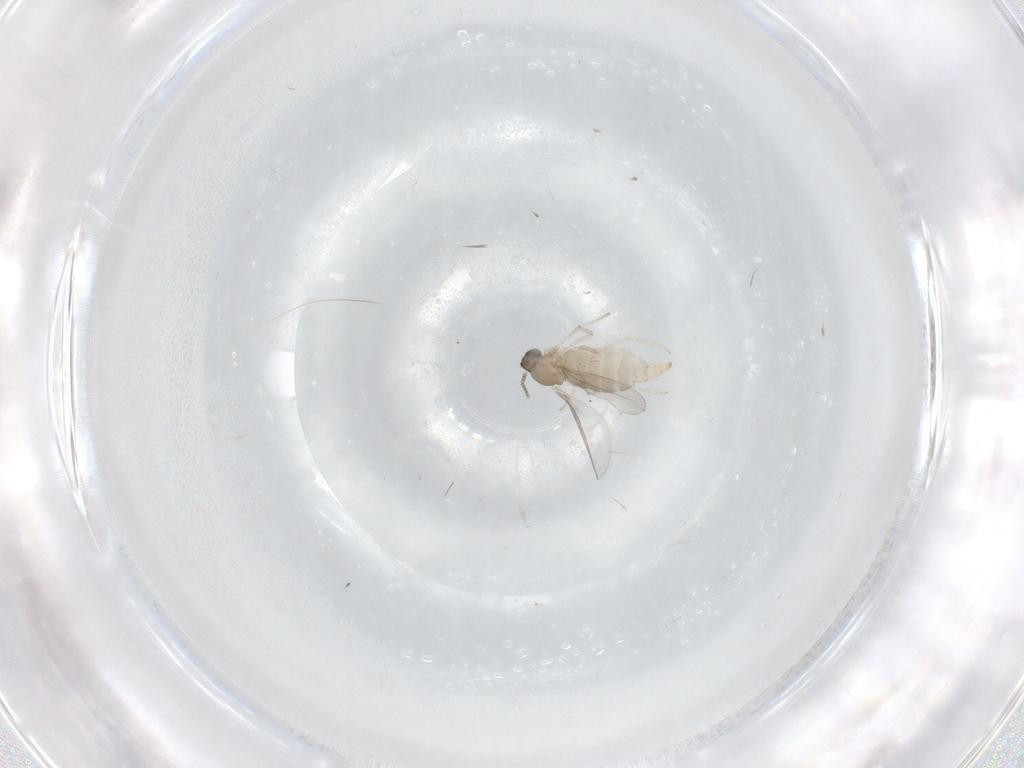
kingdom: Animalia
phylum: Arthropoda
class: Insecta
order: Diptera
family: Cecidomyiidae
